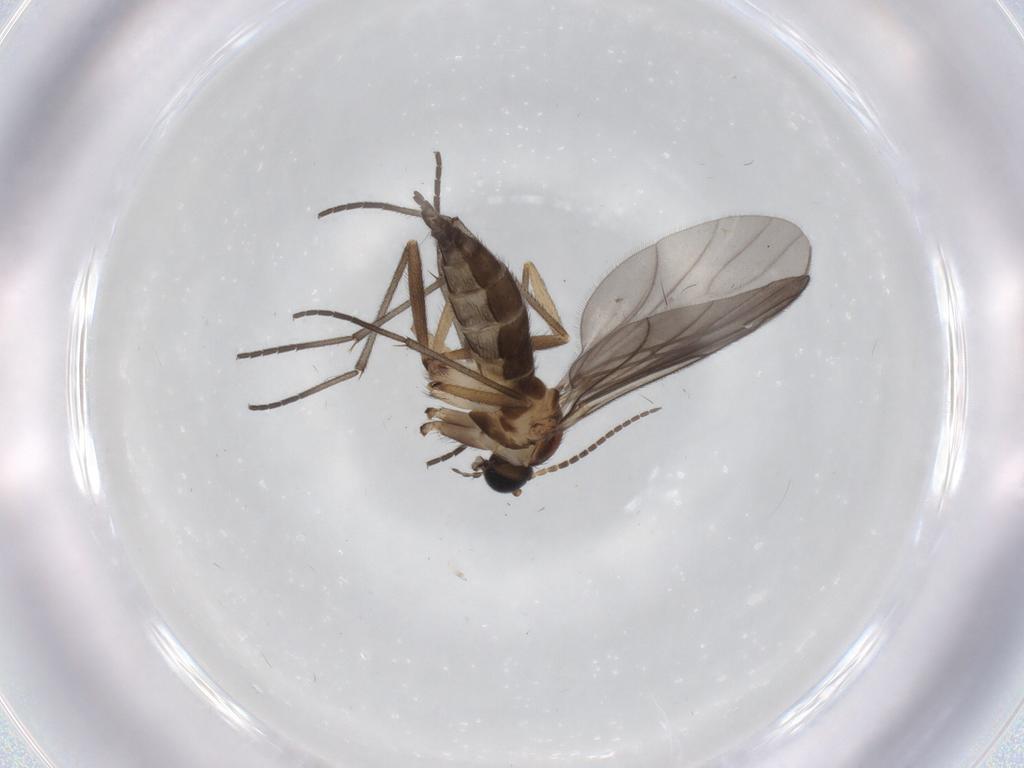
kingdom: Animalia
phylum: Arthropoda
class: Insecta
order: Diptera
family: Sciaridae
